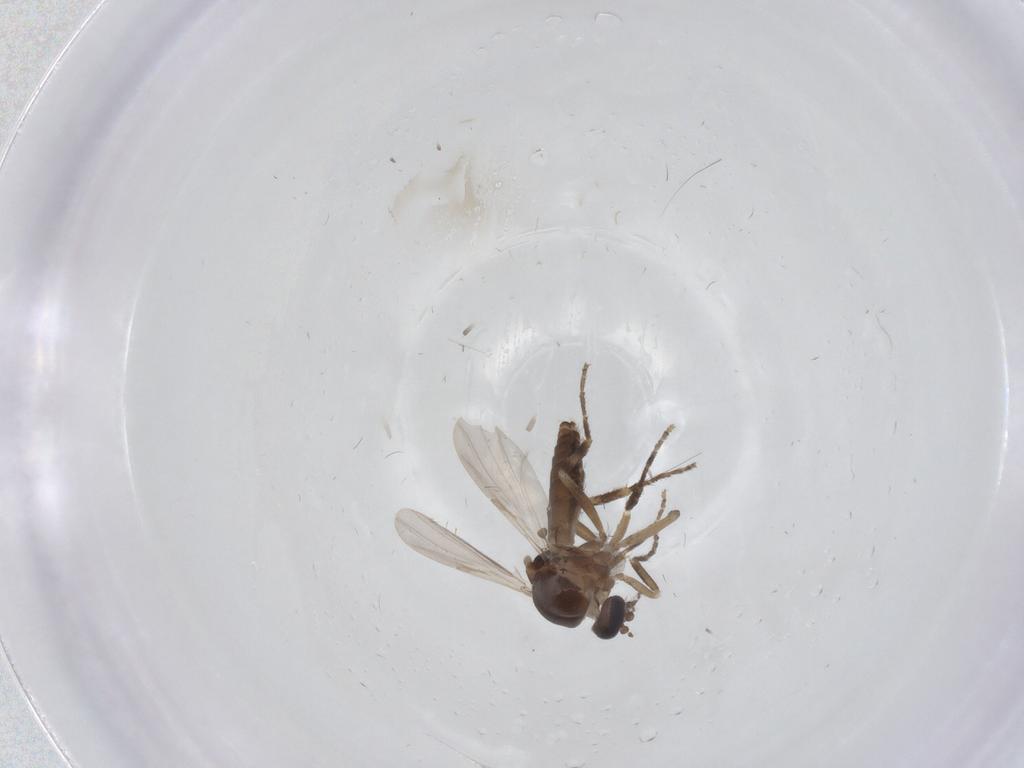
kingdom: Animalia
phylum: Arthropoda
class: Insecta
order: Diptera
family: Ceratopogonidae
